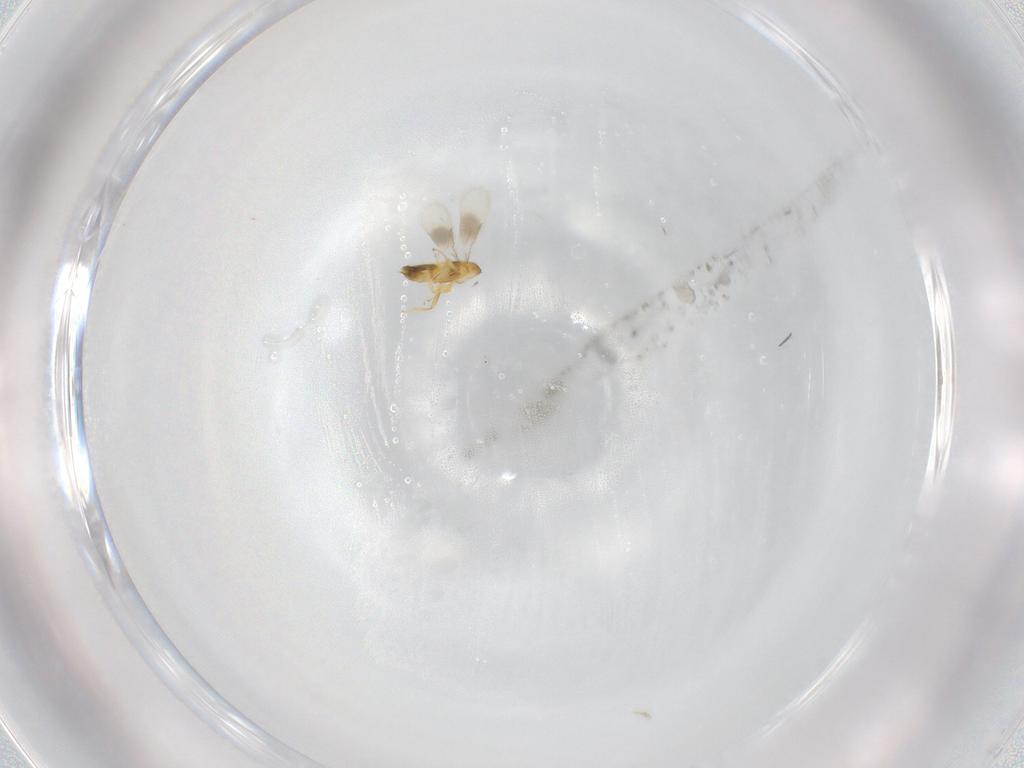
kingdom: Animalia
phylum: Arthropoda
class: Insecta
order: Hymenoptera
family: Encyrtidae
